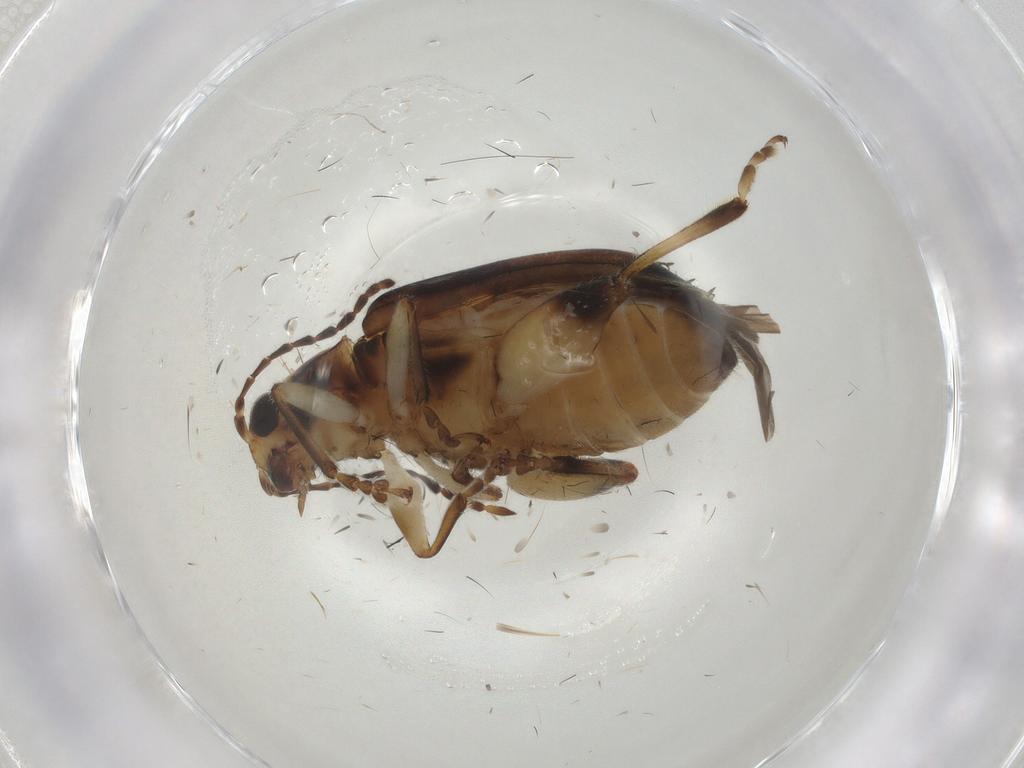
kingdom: Animalia
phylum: Arthropoda
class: Insecta
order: Coleoptera
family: Chrysomelidae
